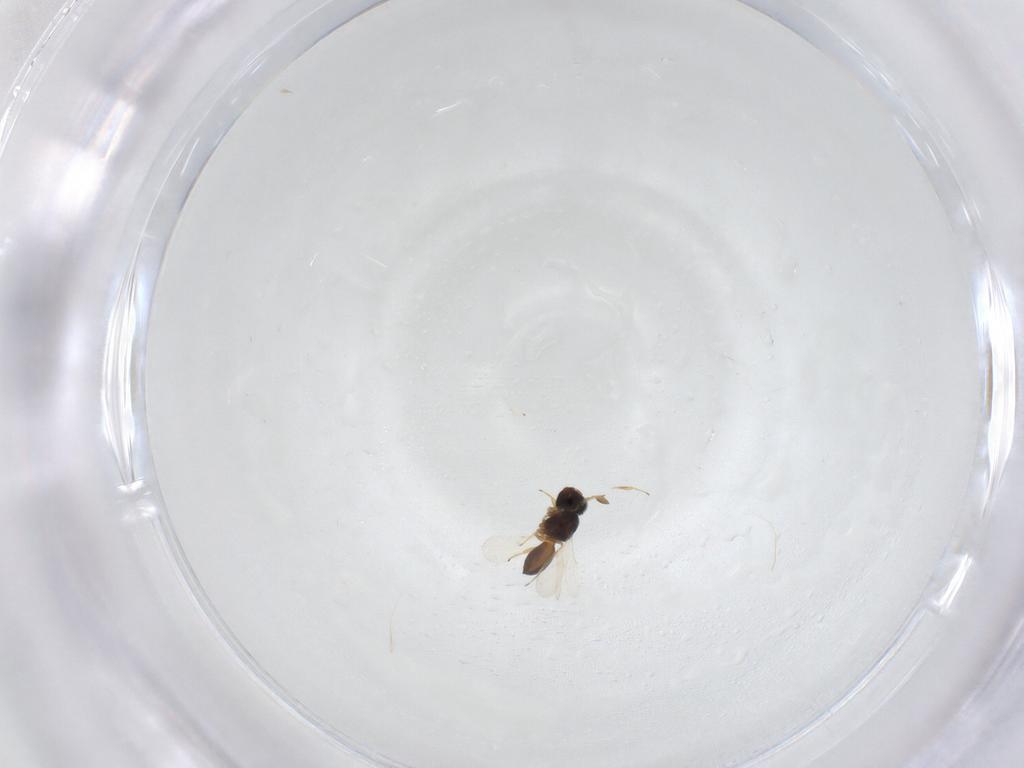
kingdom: Animalia
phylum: Arthropoda
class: Insecta
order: Hymenoptera
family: Scelionidae
